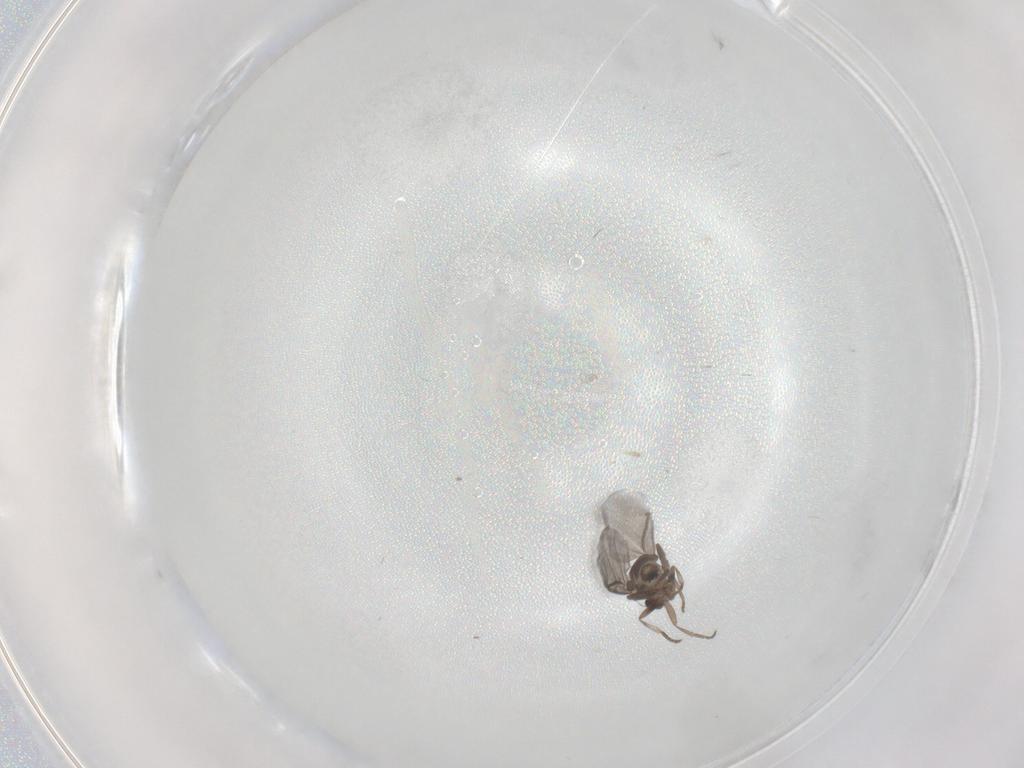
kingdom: Animalia
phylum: Arthropoda
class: Insecta
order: Diptera
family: Phoridae
